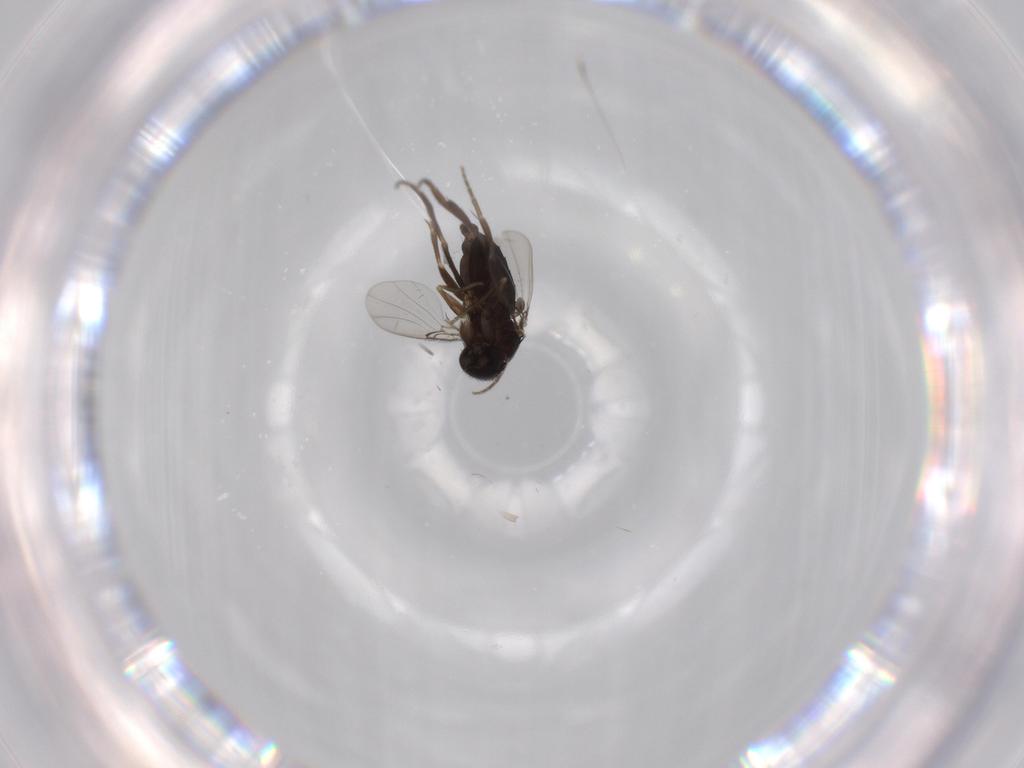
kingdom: Animalia
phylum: Arthropoda
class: Insecta
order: Diptera
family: Phoridae
